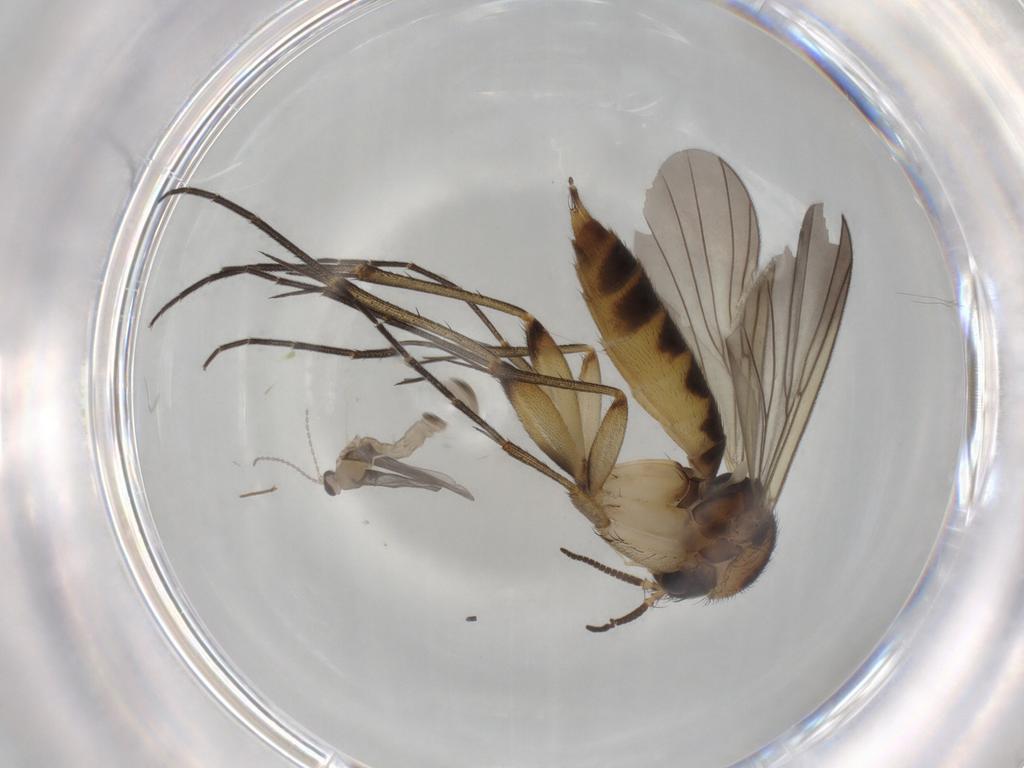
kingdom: Animalia
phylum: Arthropoda
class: Insecta
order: Diptera
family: Mycetophilidae
